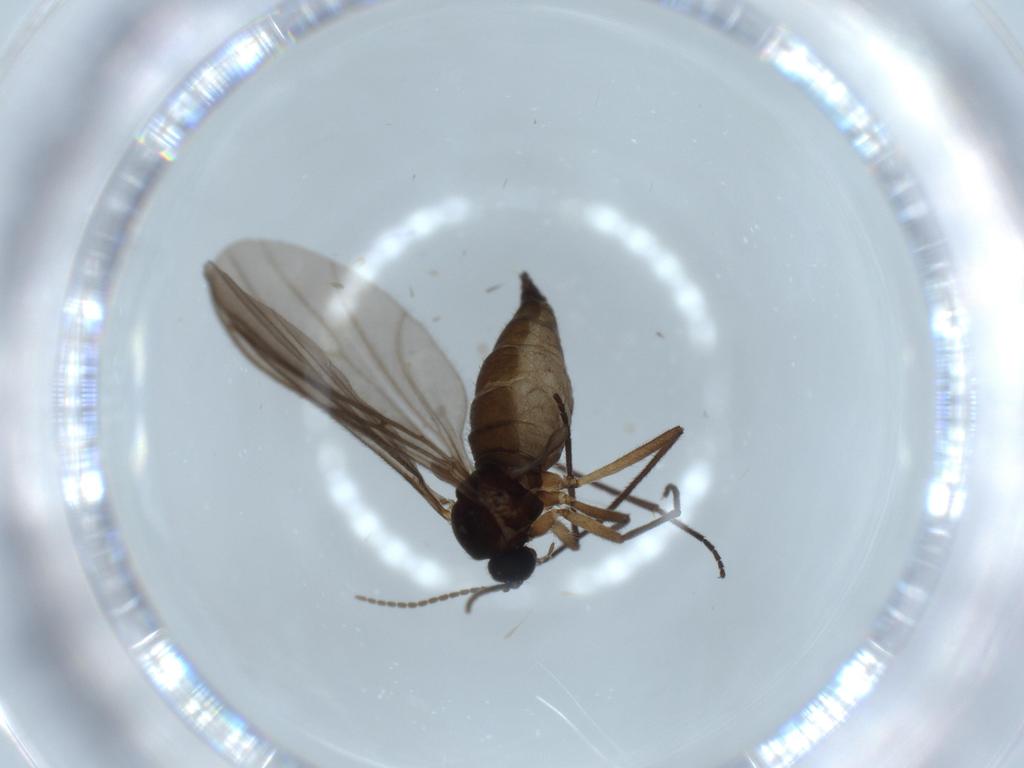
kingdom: Animalia
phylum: Arthropoda
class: Insecta
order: Diptera
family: Sciaridae
